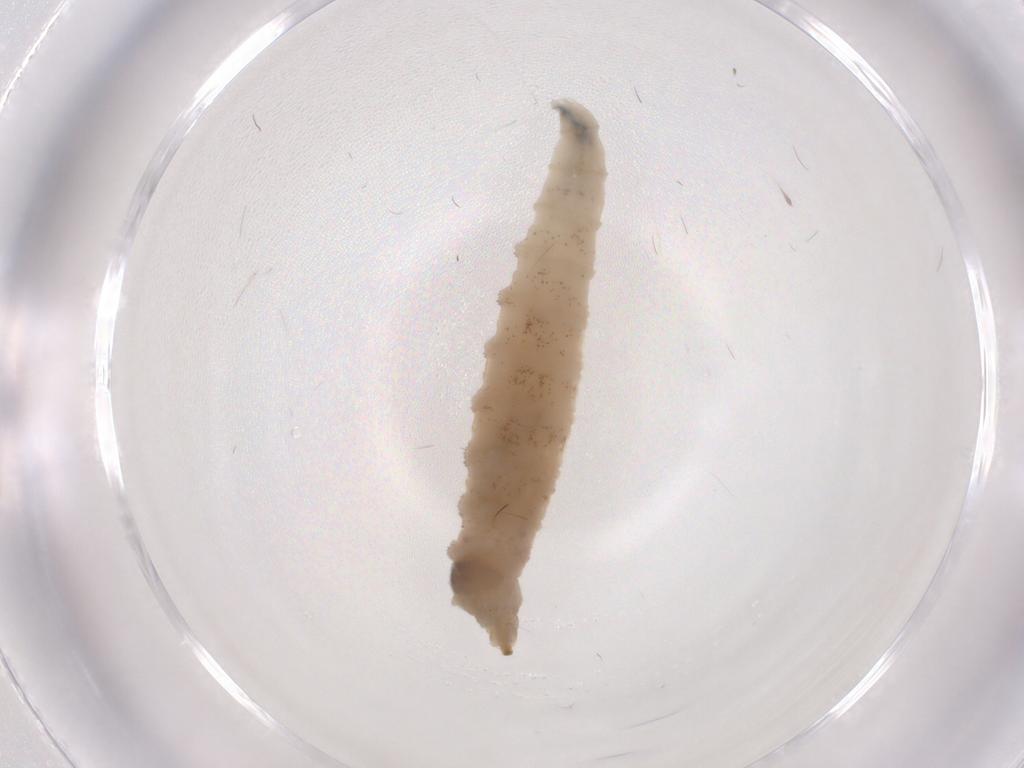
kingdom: Animalia
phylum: Arthropoda
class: Insecta
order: Diptera
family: Drosophilidae
